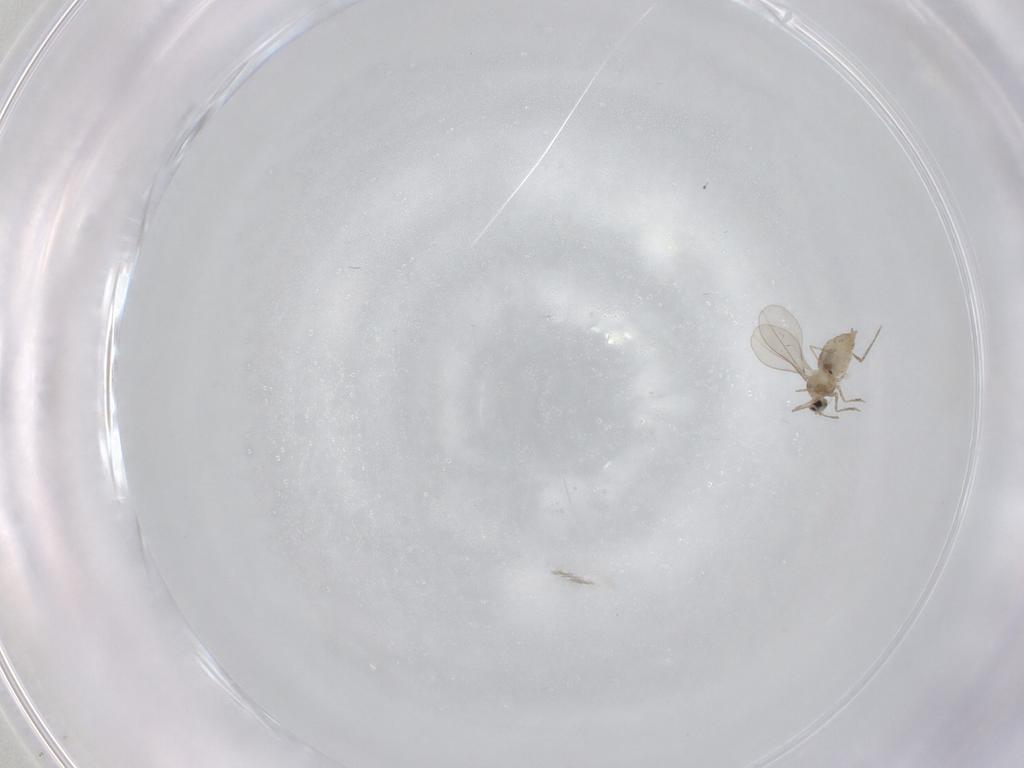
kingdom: Animalia
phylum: Arthropoda
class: Insecta
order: Diptera
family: Cecidomyiidae
